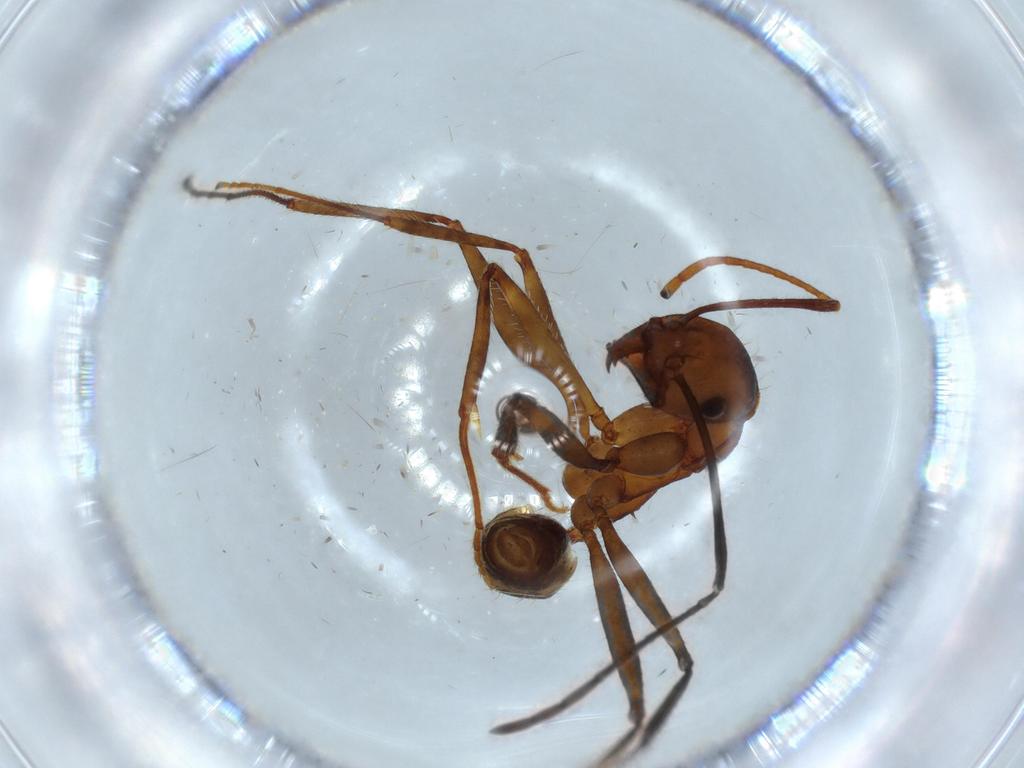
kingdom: Animalia
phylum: Arthropoda
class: Insecta
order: Hymenoptera
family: Formicidae
